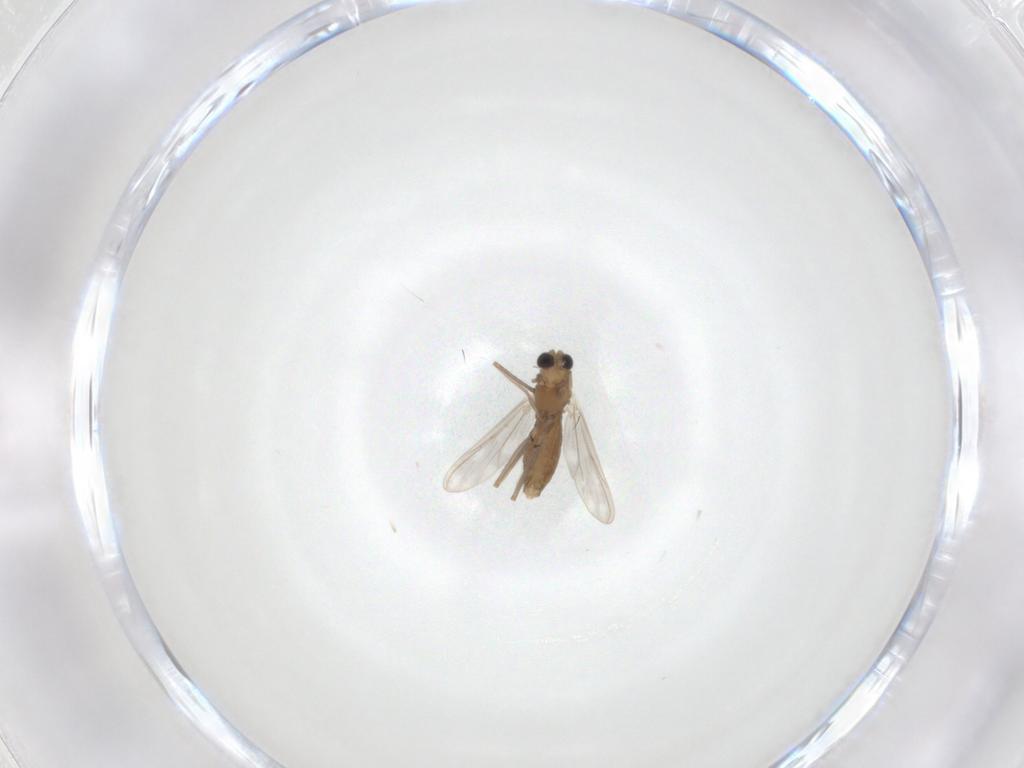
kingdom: Animalia
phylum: Arthropoda
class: Insecta
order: Diptera
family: Chironomidae
